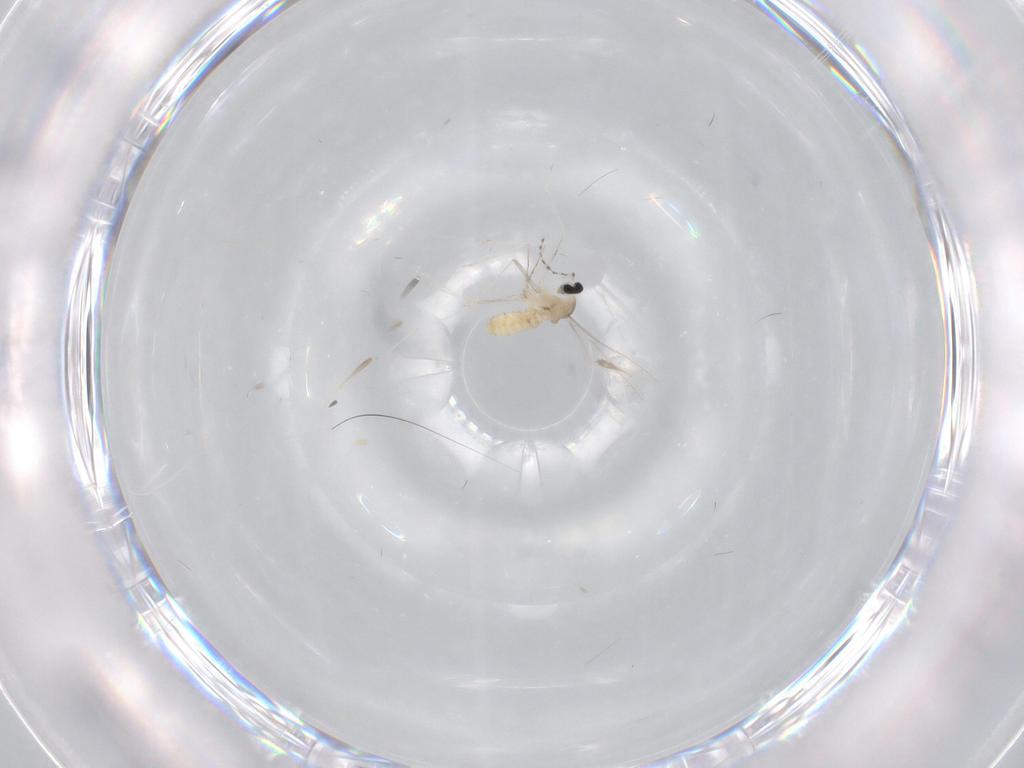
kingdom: Animalia
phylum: Arthropoda
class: Insecta
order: Diptera
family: Cecidomyiidae
